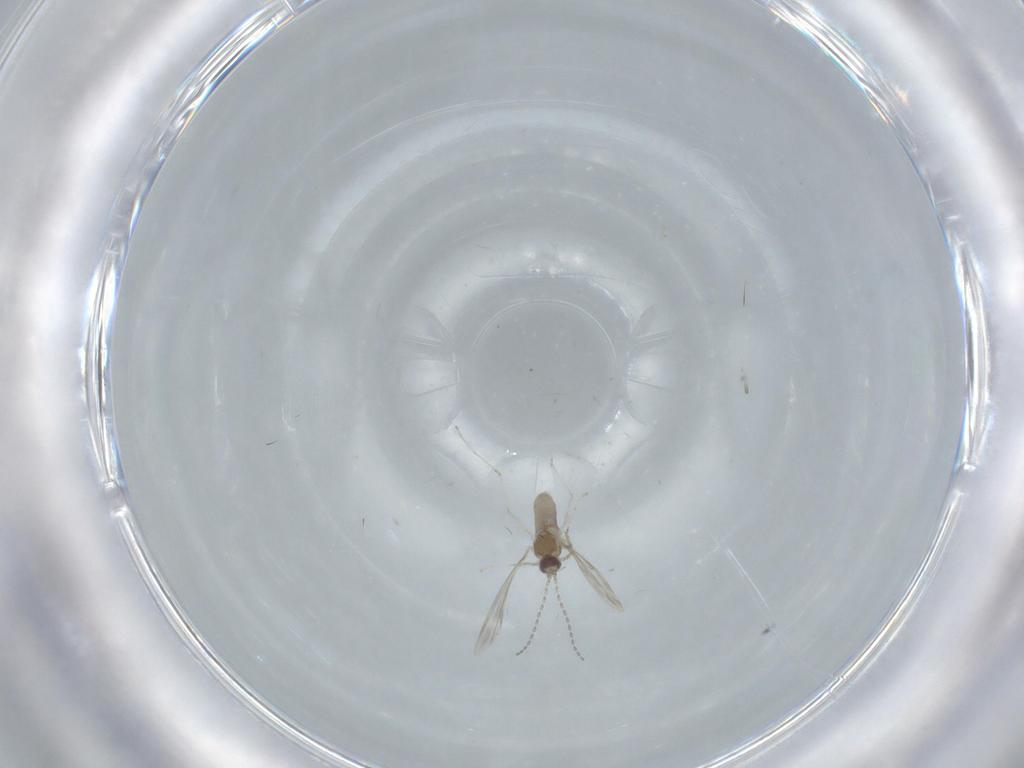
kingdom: Animalia
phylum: Arthropoda
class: Insecta
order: Diptera
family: Cecidomyiidae
